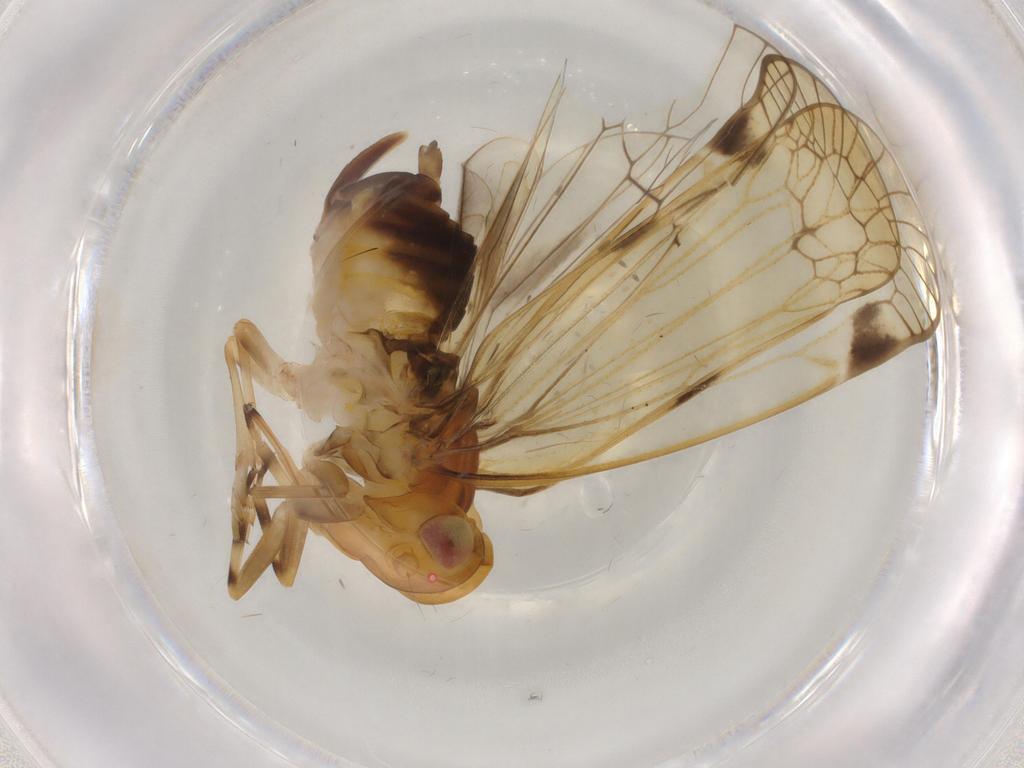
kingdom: Animalia
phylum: Arthropoda
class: Insecta
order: Hemiptera
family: Cixiidae
